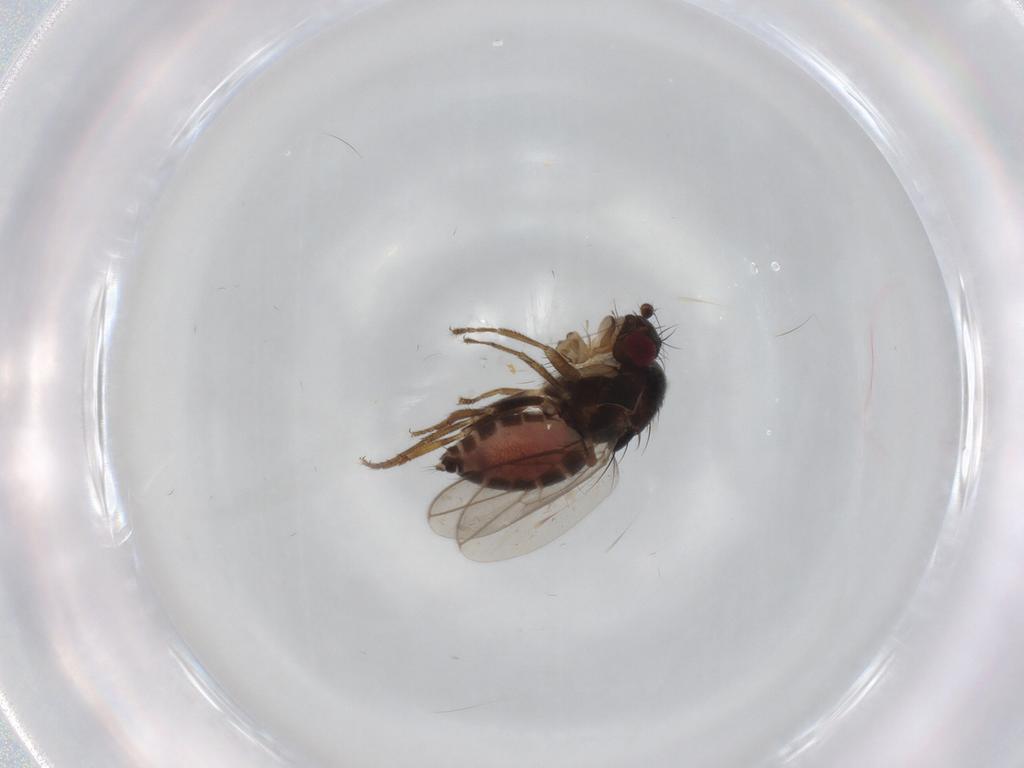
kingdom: Animalia
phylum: Arthropoda
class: Insecta
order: Diptera
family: Sphaeroceridae
